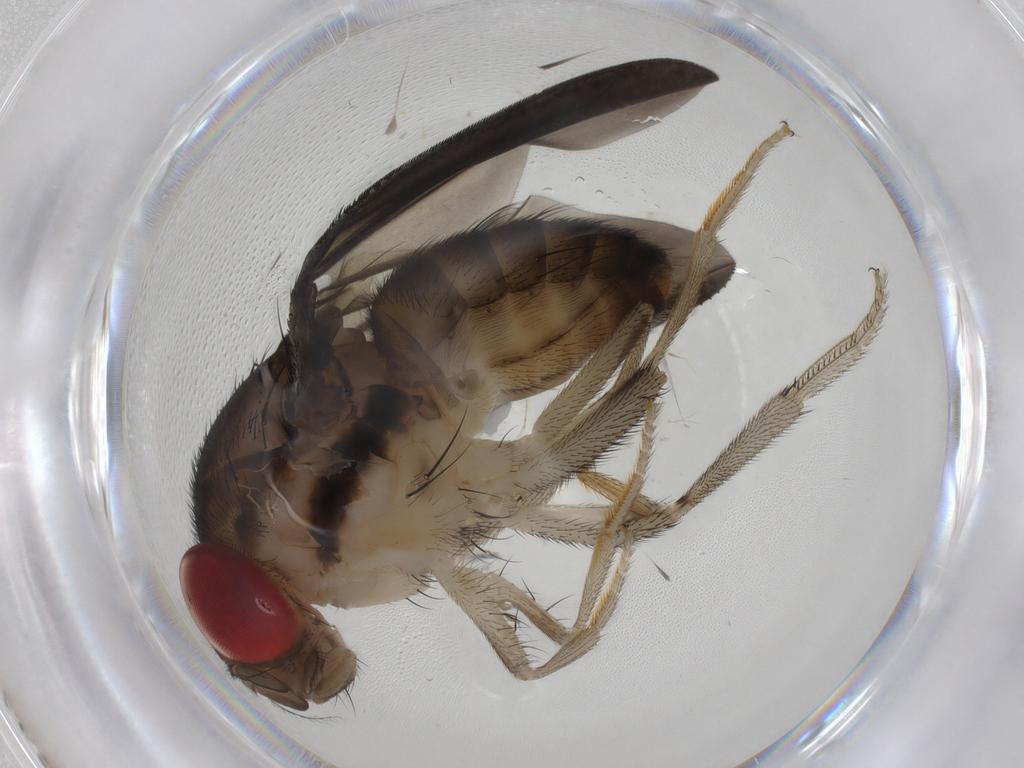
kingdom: Animalia
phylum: Arthropoda
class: Insecta
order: Diptera
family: Drosophilidae
